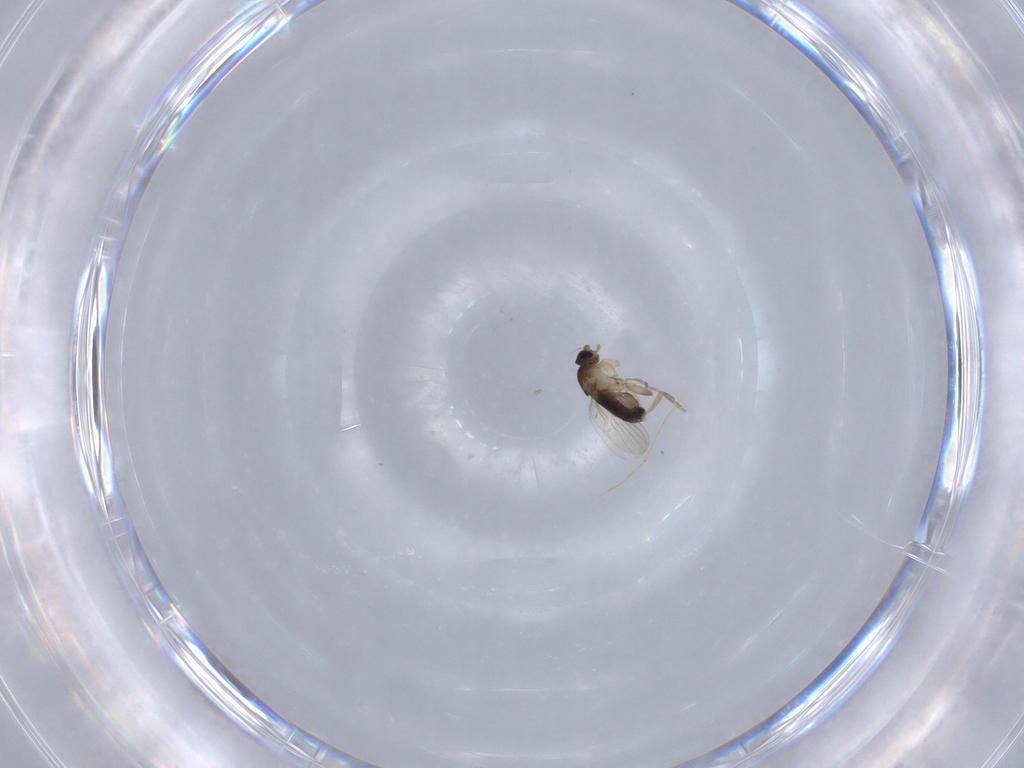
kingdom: Animalia
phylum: Arthropoda
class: Insecta
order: Diptera
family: Phoridae
